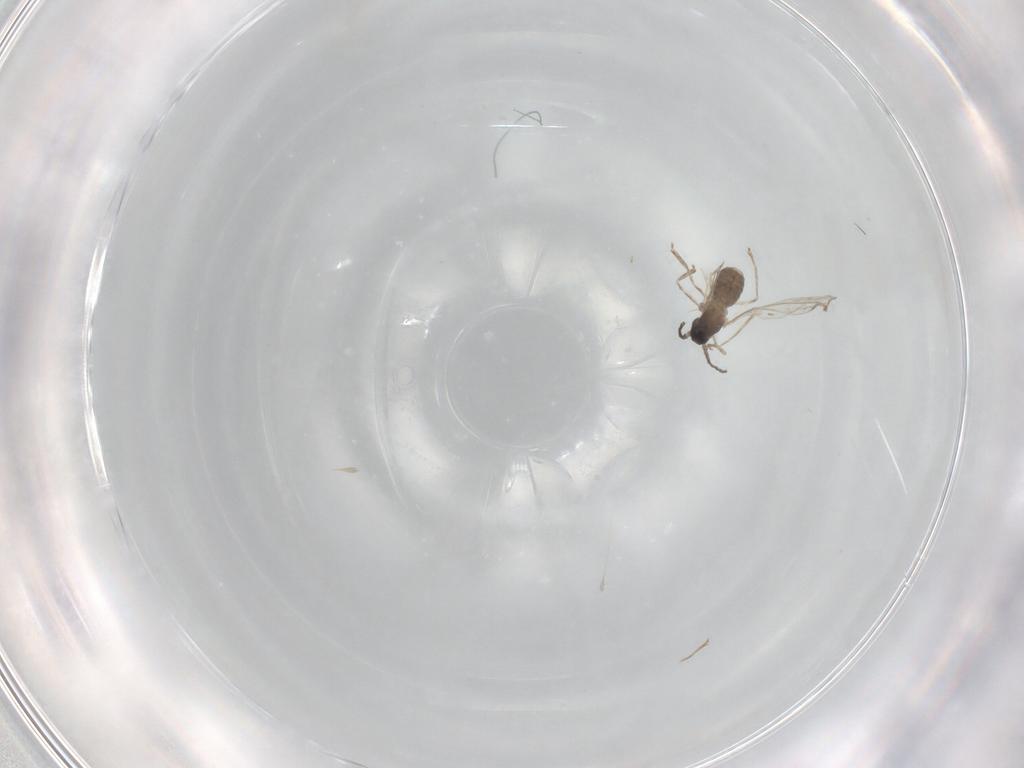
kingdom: Animalia
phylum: Arthropoda
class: Insecta
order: Diptera
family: Cecidomyiidae
